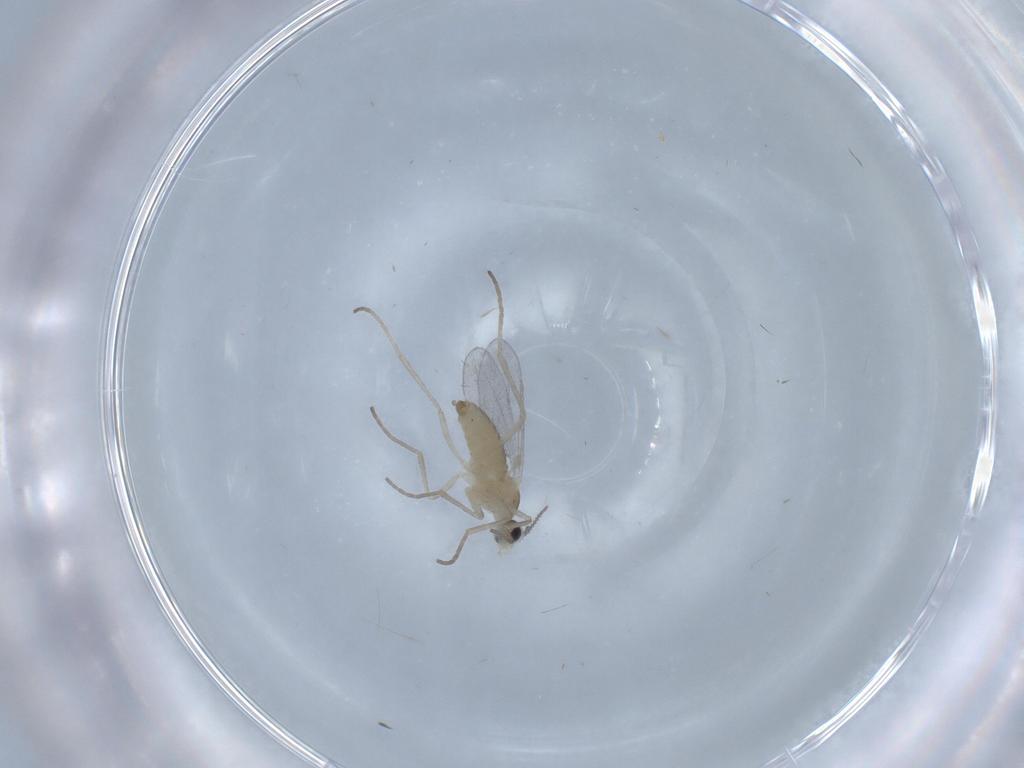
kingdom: Animalia
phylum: Arthropoda
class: Insecta
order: Diptera
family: Cecidomyiidae
